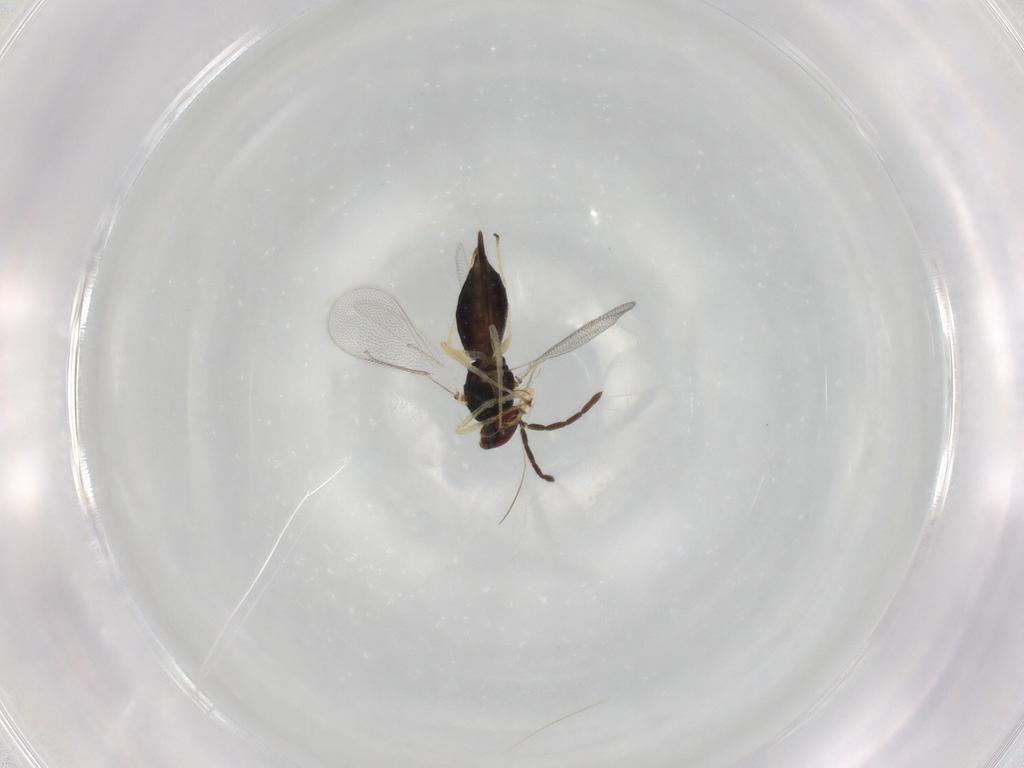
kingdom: Animalia
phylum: Arthropoda
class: Insecta
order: Hymenoptera
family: Eulophidae
